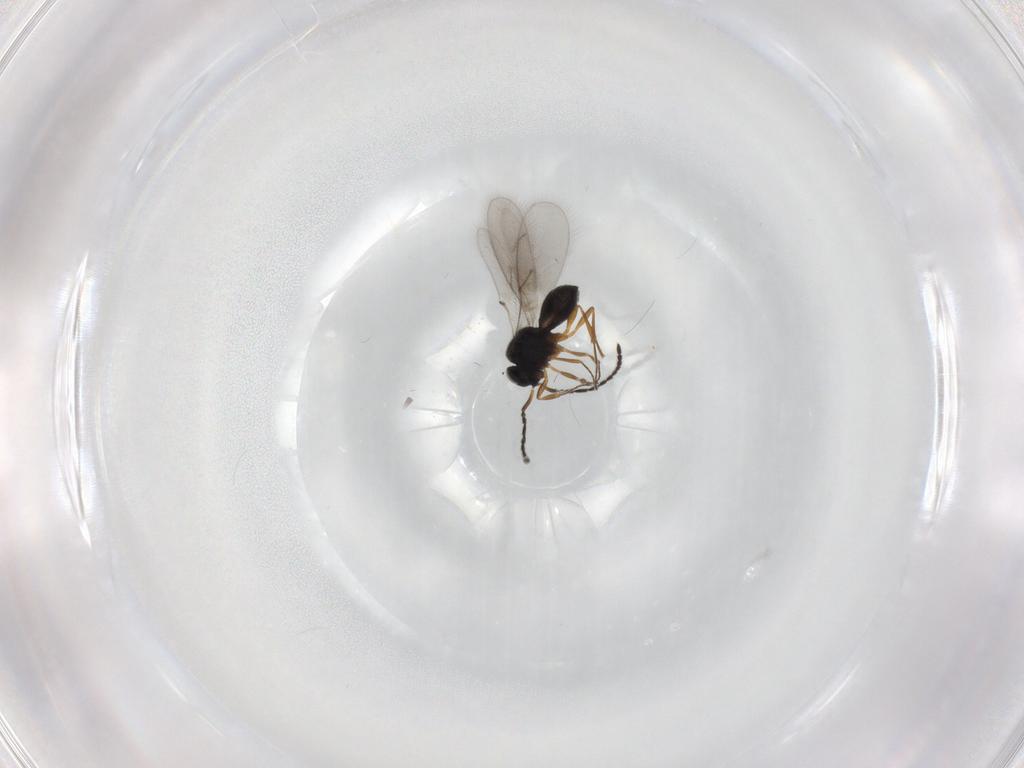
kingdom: Animalia
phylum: Arthropoda
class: Insecta
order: Hymenoptera
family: Scelionidae
